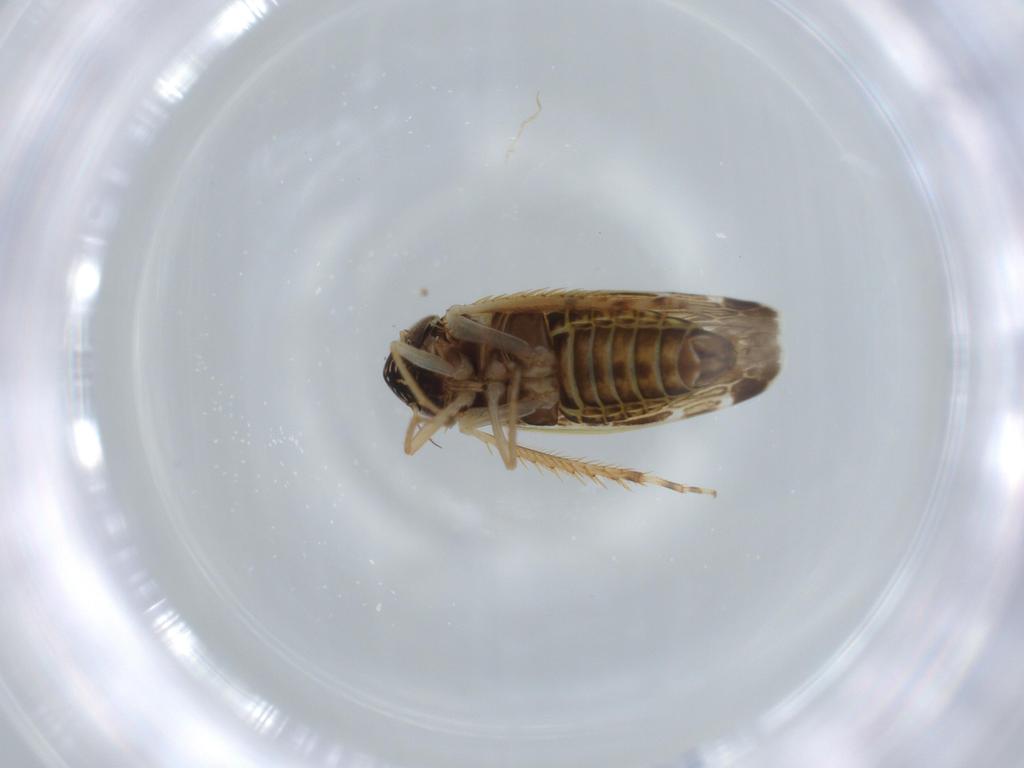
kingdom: Animalia
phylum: Arthropoda
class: Insecta
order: Hemiptera
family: Cicadellidae
